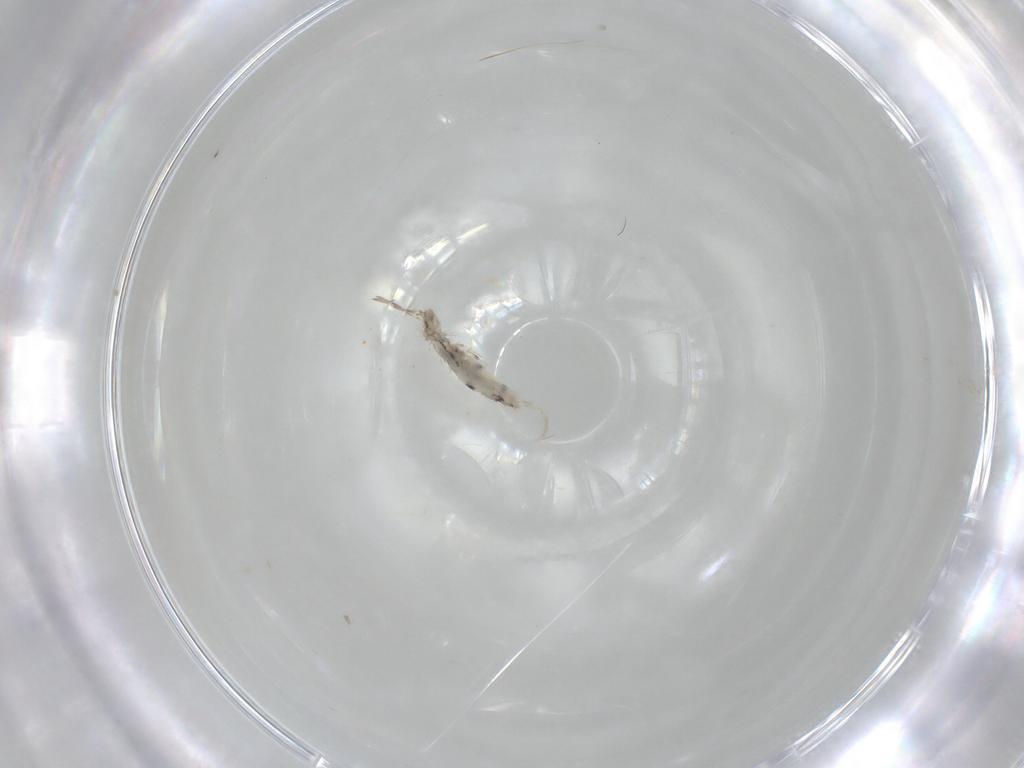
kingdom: Animalia
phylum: Arthropoda
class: Collembola
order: Entomobryomorpha
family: Entomobryidae
